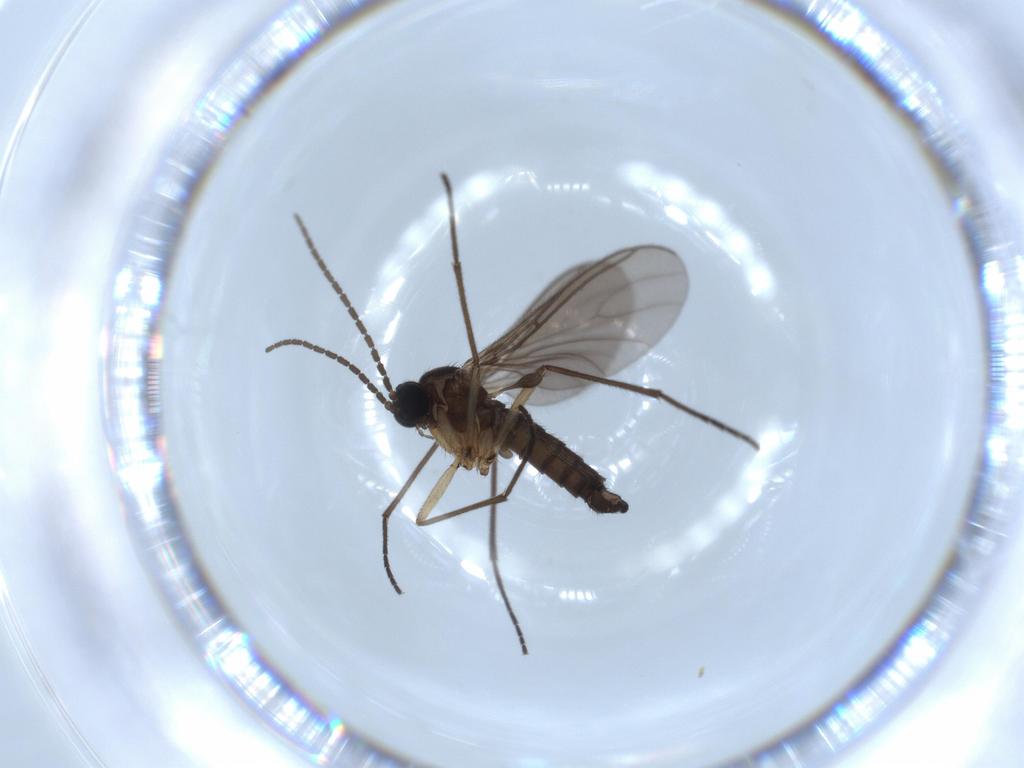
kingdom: Animalia
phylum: Arthropoda
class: Insecta
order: Diptera
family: Sciaridae
